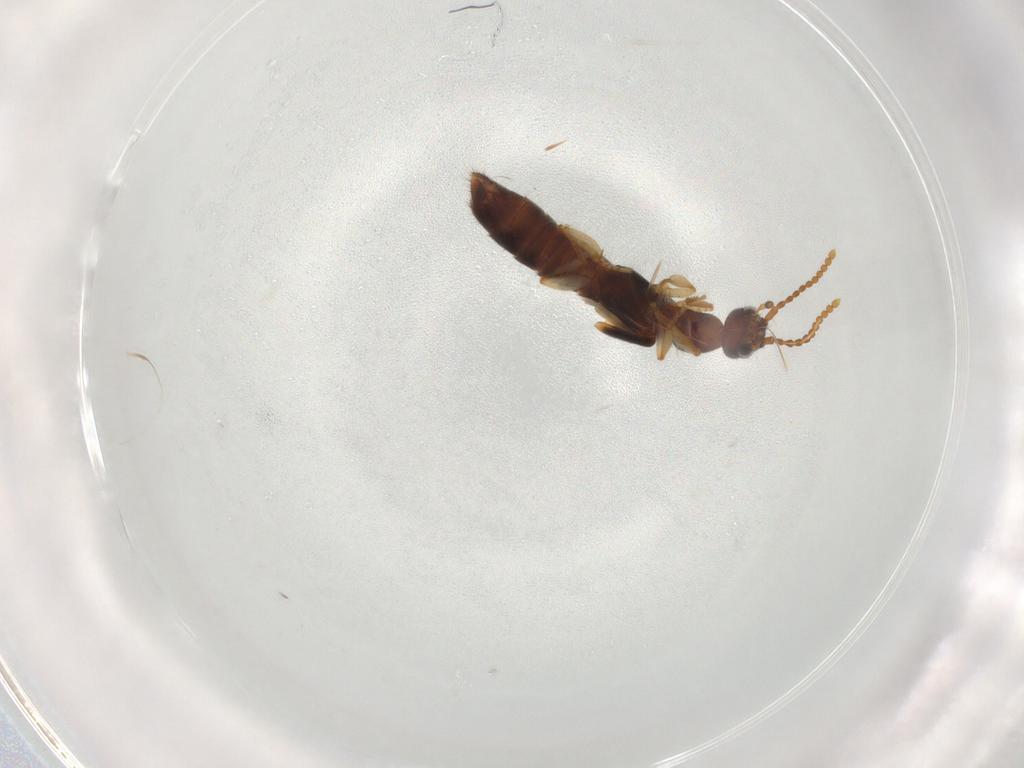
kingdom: Animalia
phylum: Arthropoda
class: Insecta
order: Coleoptera
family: Staphylinidae
